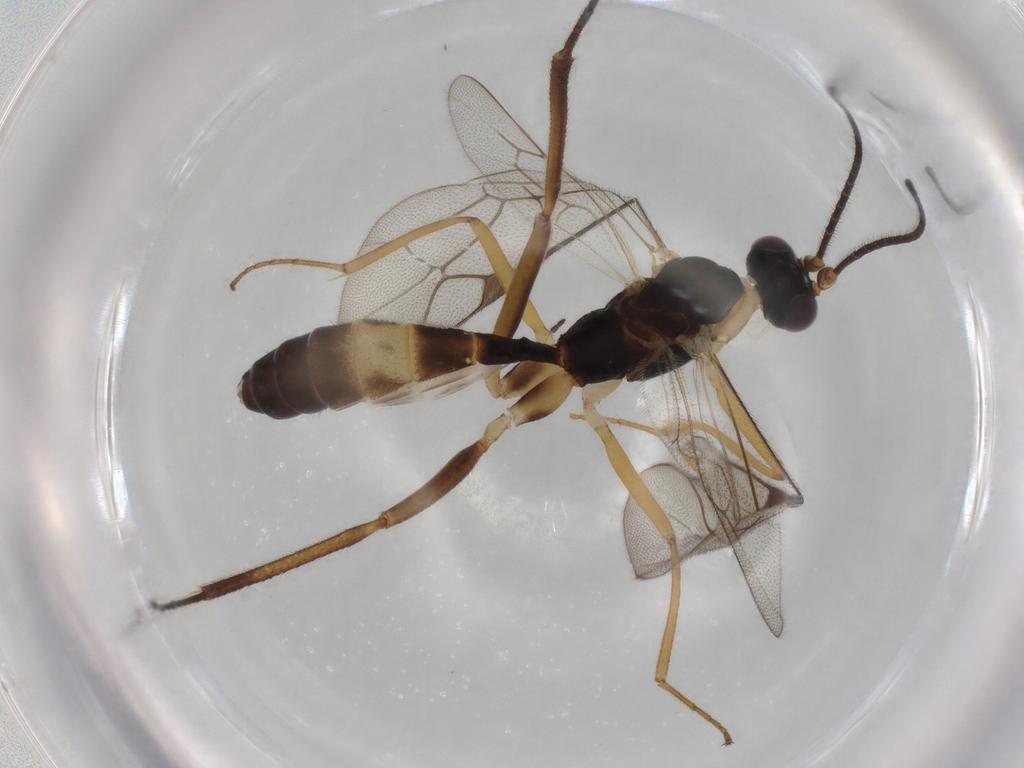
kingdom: Animalia
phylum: Arthropoda
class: Insecta
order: Hymenoptera
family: Ichneumonidae
